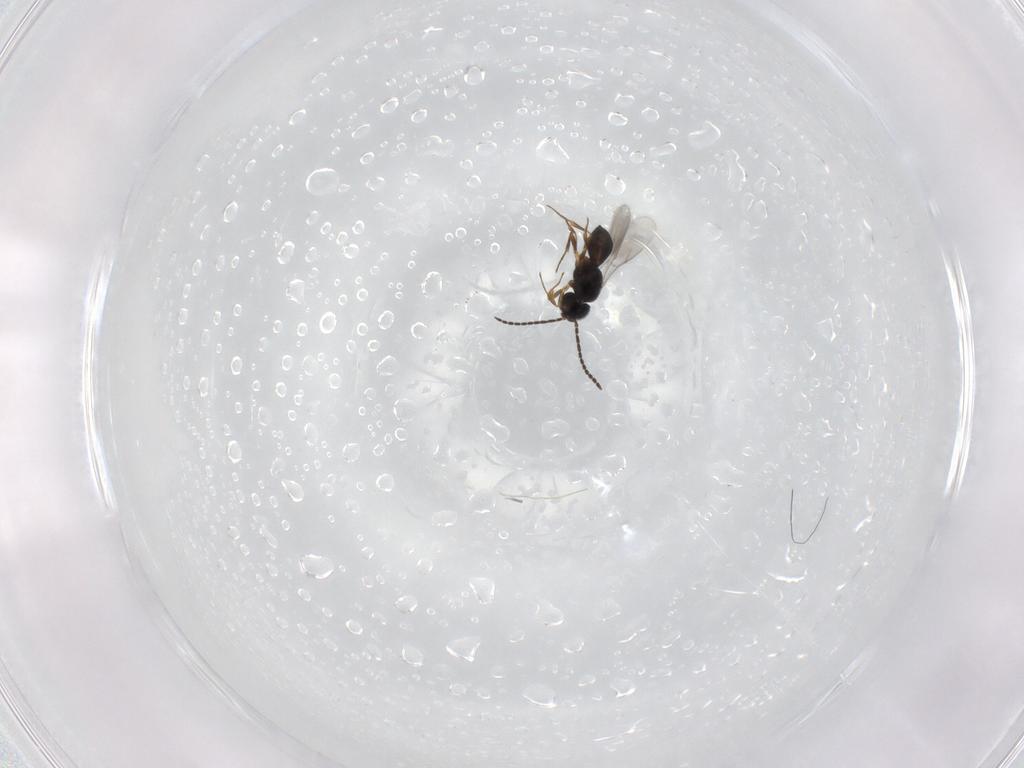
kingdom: Animalia
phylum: Arthropoda
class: Insecta
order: Hymenoptera
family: Scelionidae
